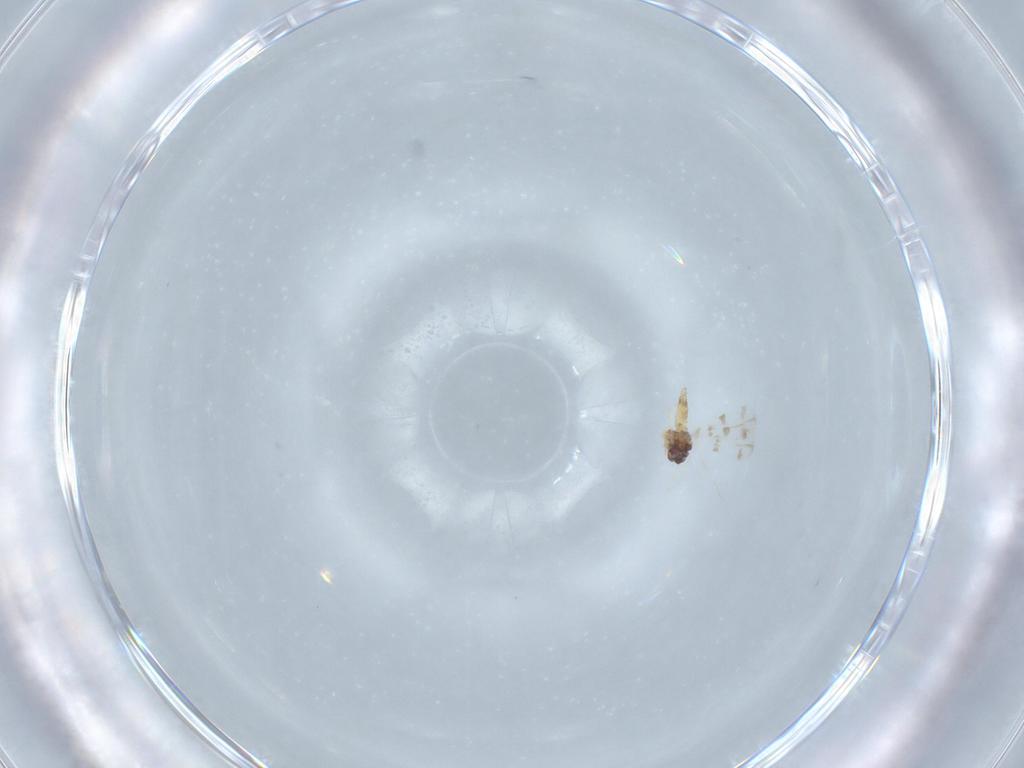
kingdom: Animalia
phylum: Arthropoda
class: Insecta
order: Hemiptera
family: Aleyrodidae
